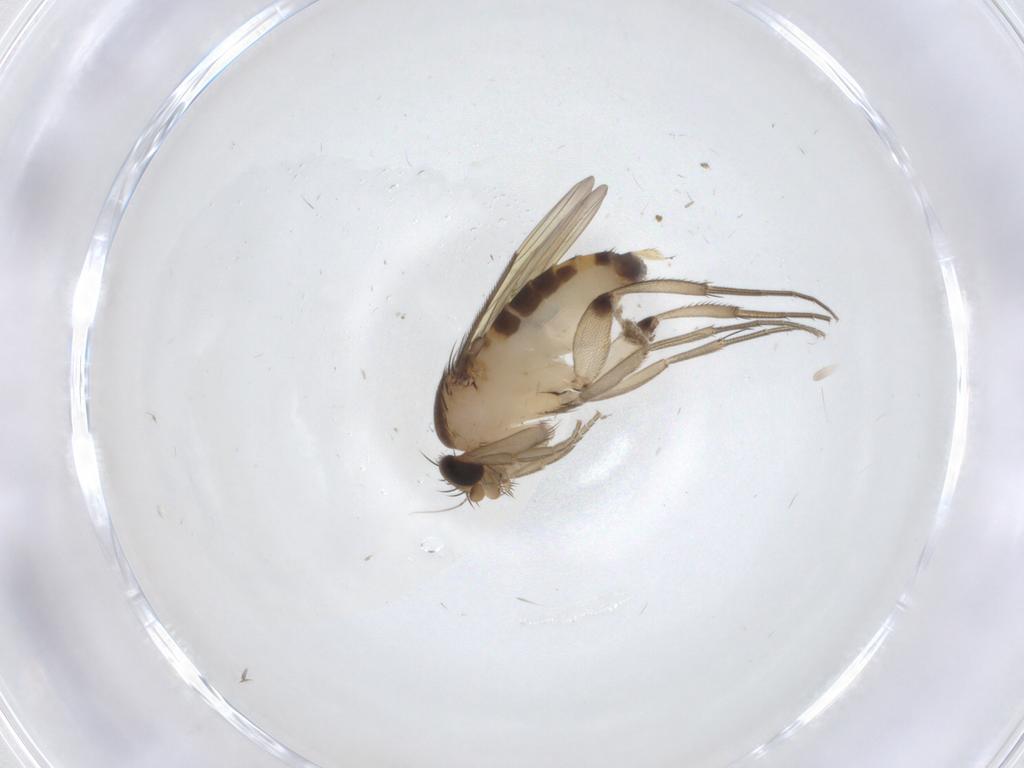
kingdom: Animalia
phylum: Arthropoda
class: Insecta
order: Diptera
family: Phoridae
